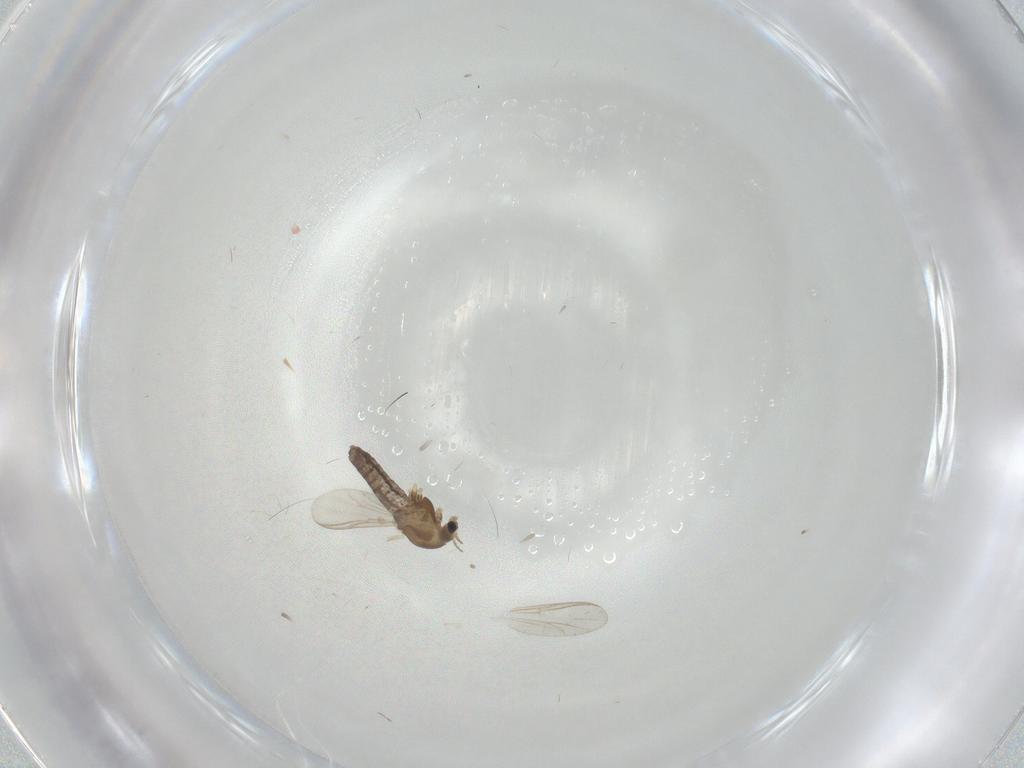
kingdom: Animalia
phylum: Arthropoda
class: Insecta
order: Diptera
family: Chironomidae
